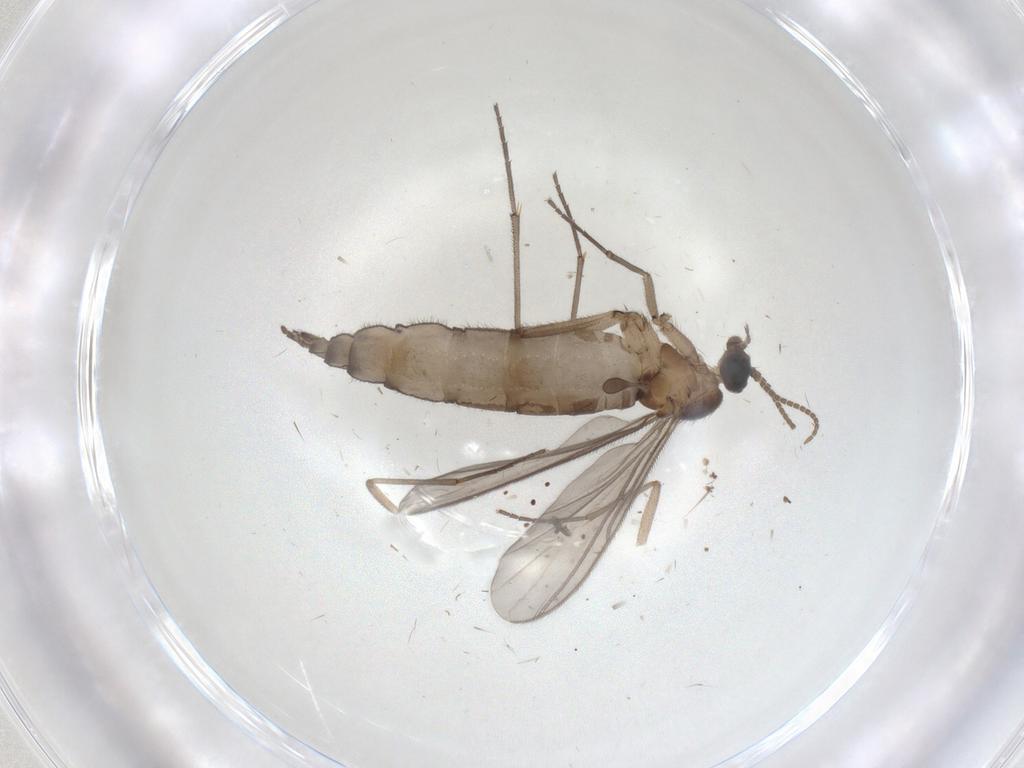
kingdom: Animalia
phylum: Arthropoda
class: Insecta
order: Diptera
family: Psychodidae
